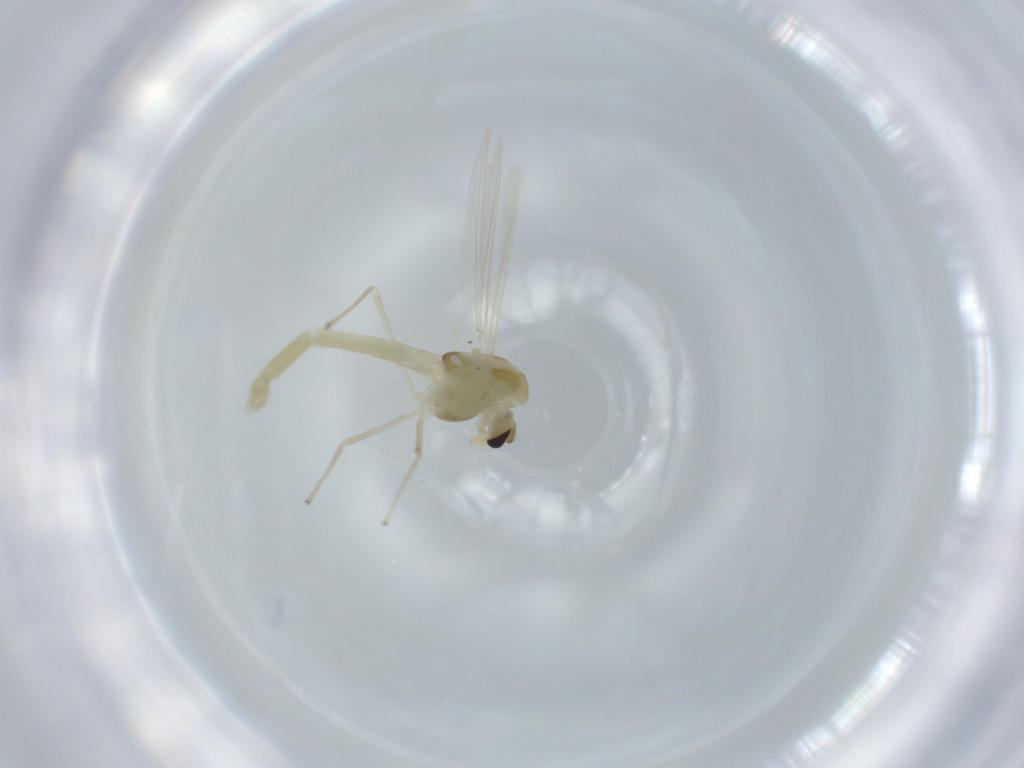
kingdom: Animalia
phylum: Arthropoda
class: Insecta
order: Diptera
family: Chironomidae
